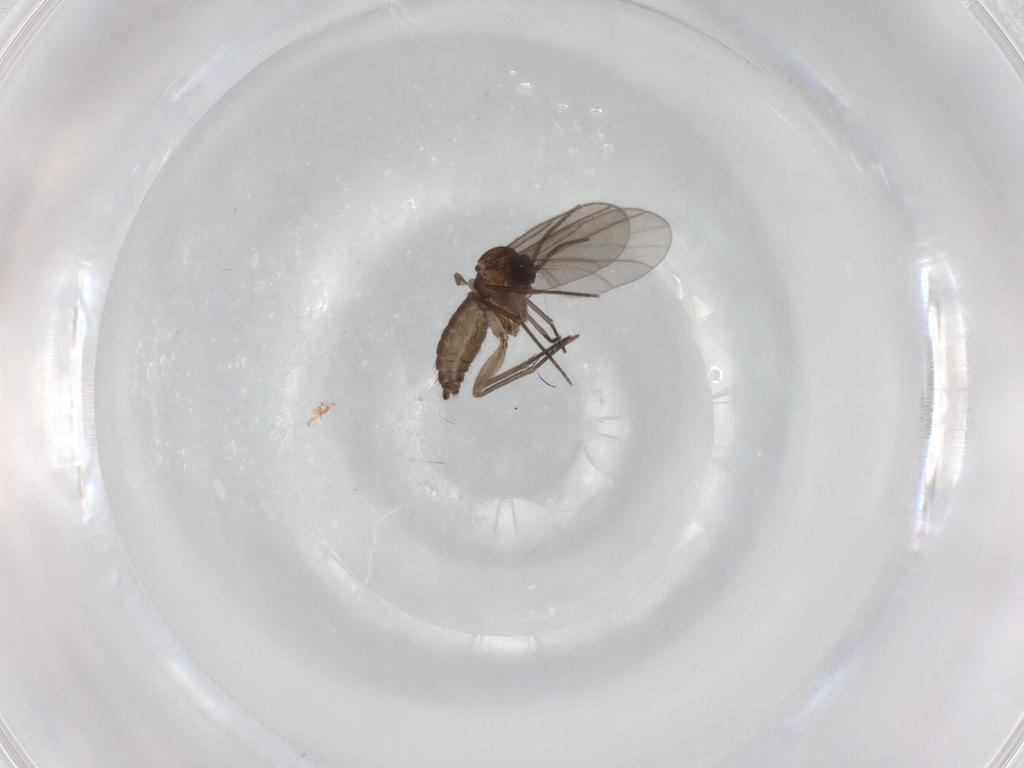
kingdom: Animalia
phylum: Arthropoda
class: Insecta
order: Diptera
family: Sciaridae
